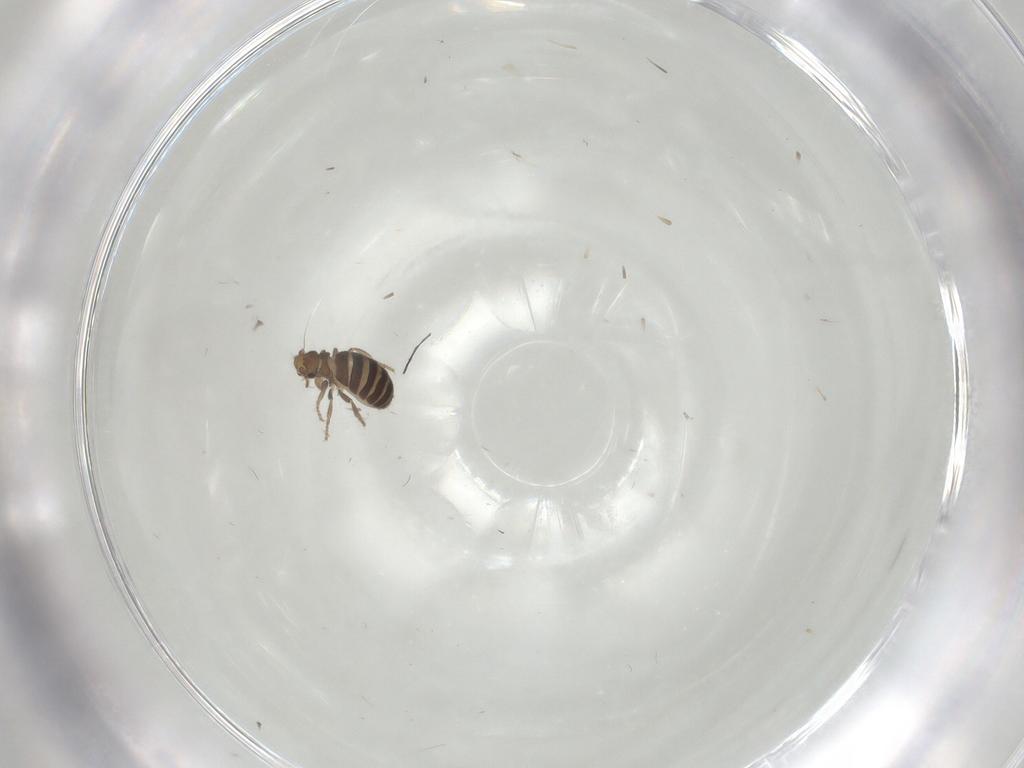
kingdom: Animalia
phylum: Arthropoda
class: Insecta
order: Diptera
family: Phoridae
